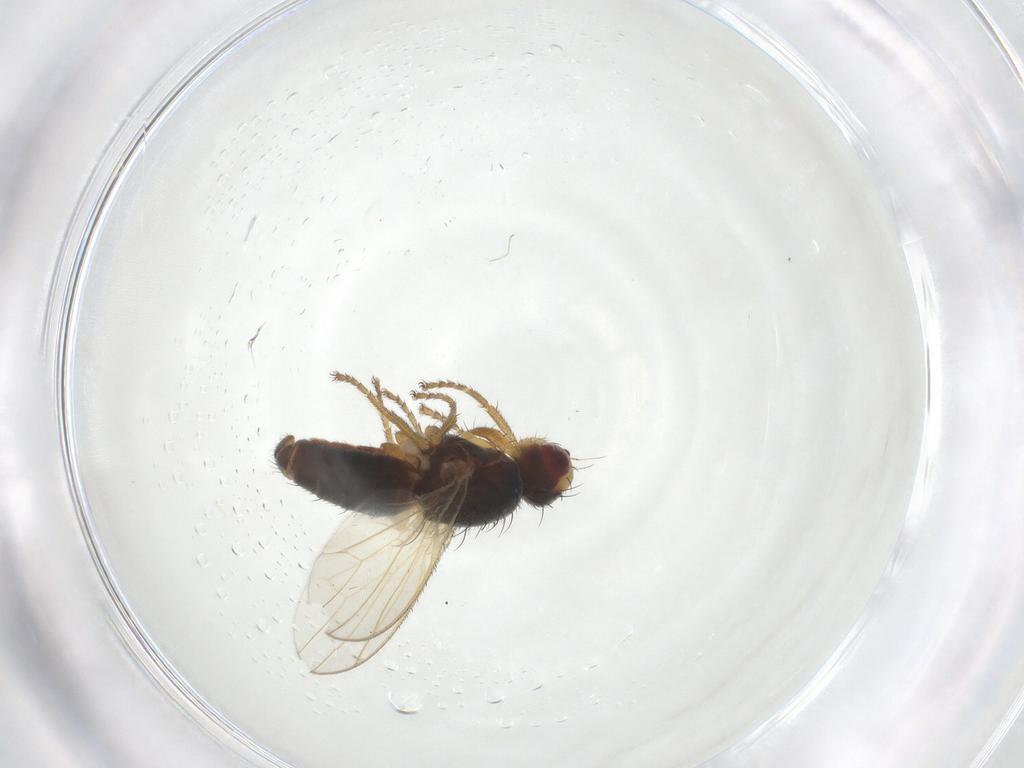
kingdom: Animalia
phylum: Arthropoda
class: Insecta
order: Diptera
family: Heleomyzidae
